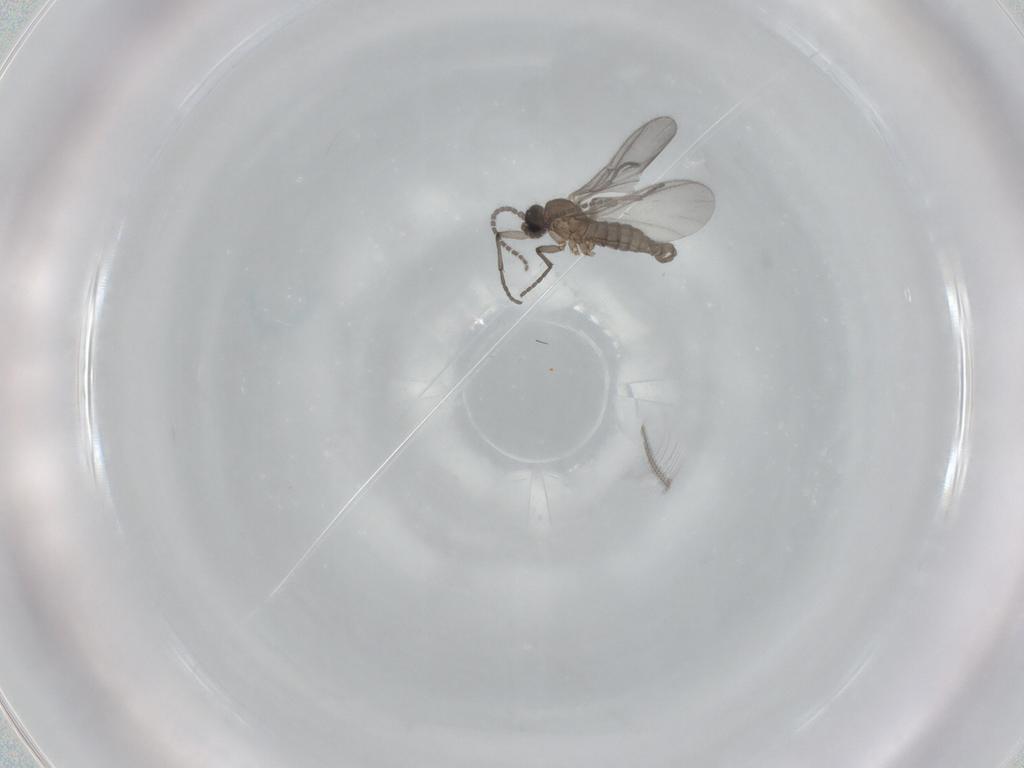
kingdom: Animalia
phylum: Arthropoda
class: Insecta
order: Diptera
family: Sciaridae
